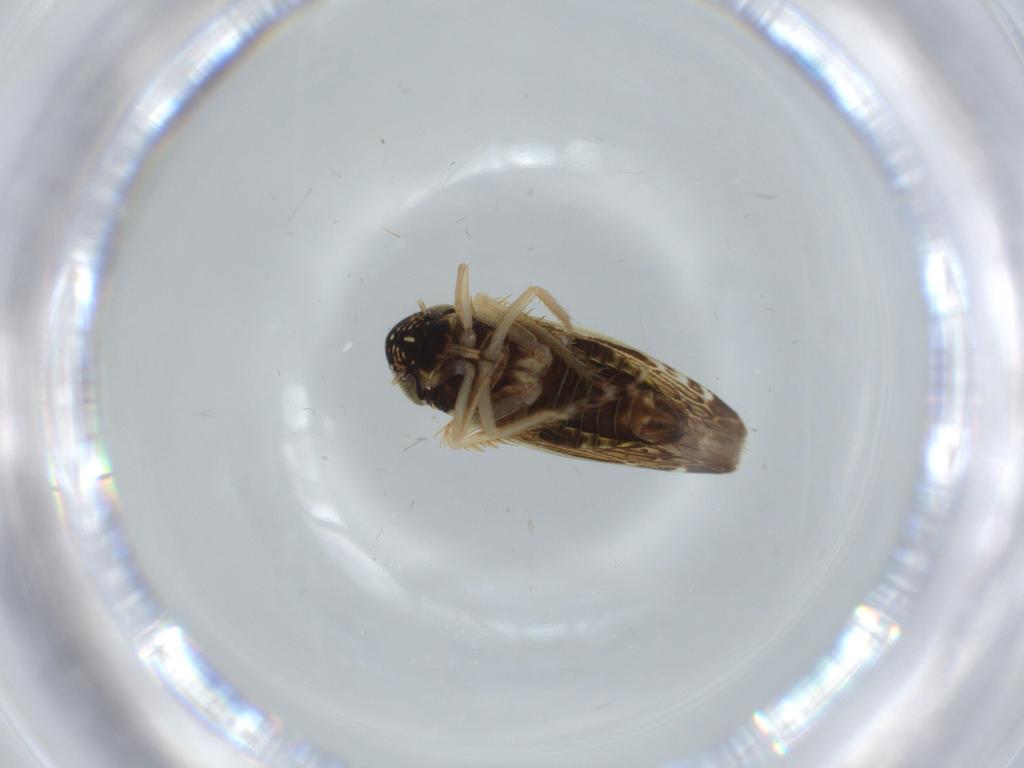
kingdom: Animalia
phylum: Arthropoda
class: Insecta
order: Hemiptera
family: Cicadellidae
